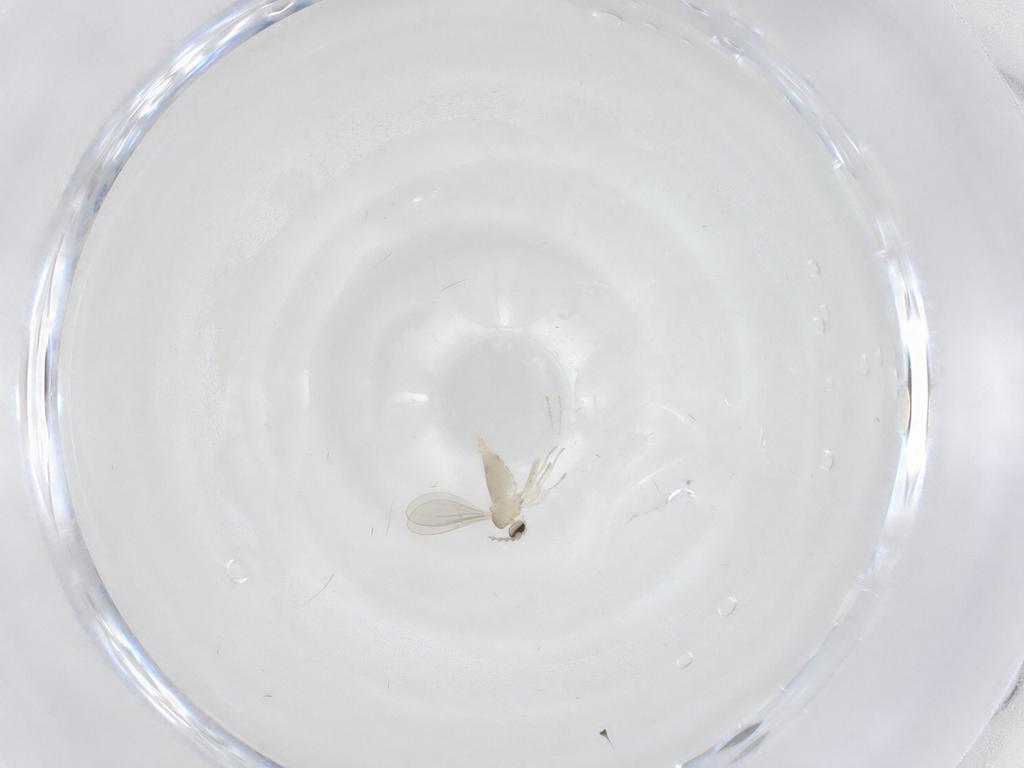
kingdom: Animalia
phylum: Arthropoda
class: Insecta
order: Diptera
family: Cecidomyiidae
